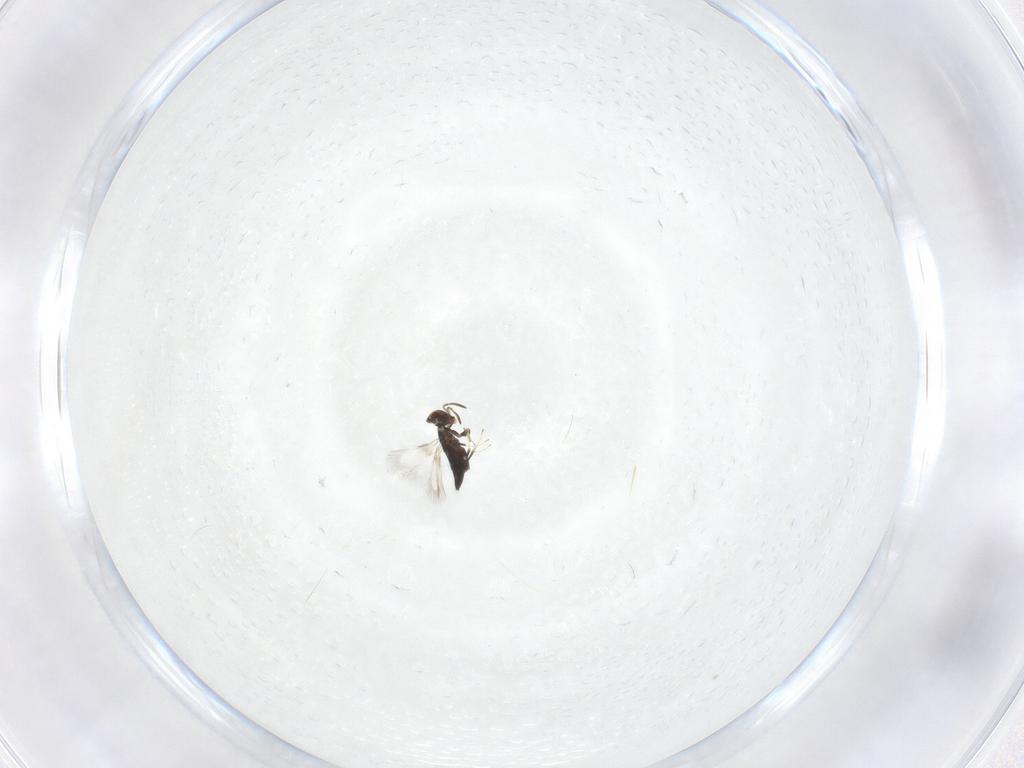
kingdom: Animalia
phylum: Arthropoda
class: Insecta
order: Hymenoptera
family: Signiphoridae
